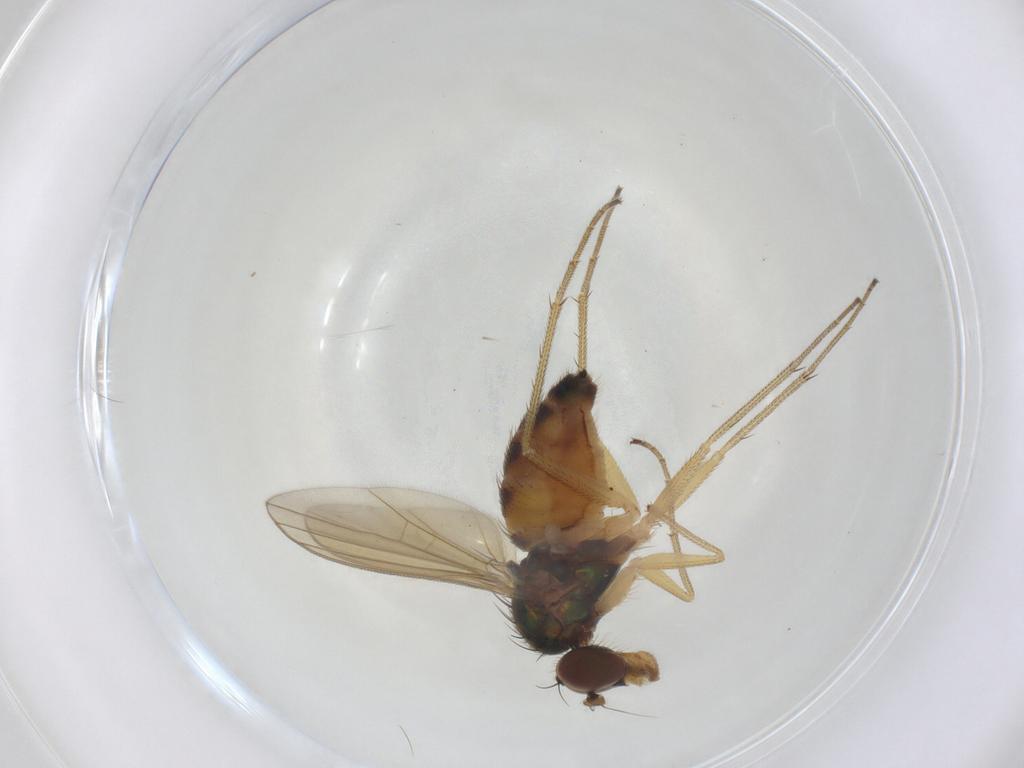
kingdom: Animalia
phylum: Arthropoda
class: Insecta
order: Diptera
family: Dolichopodidae
